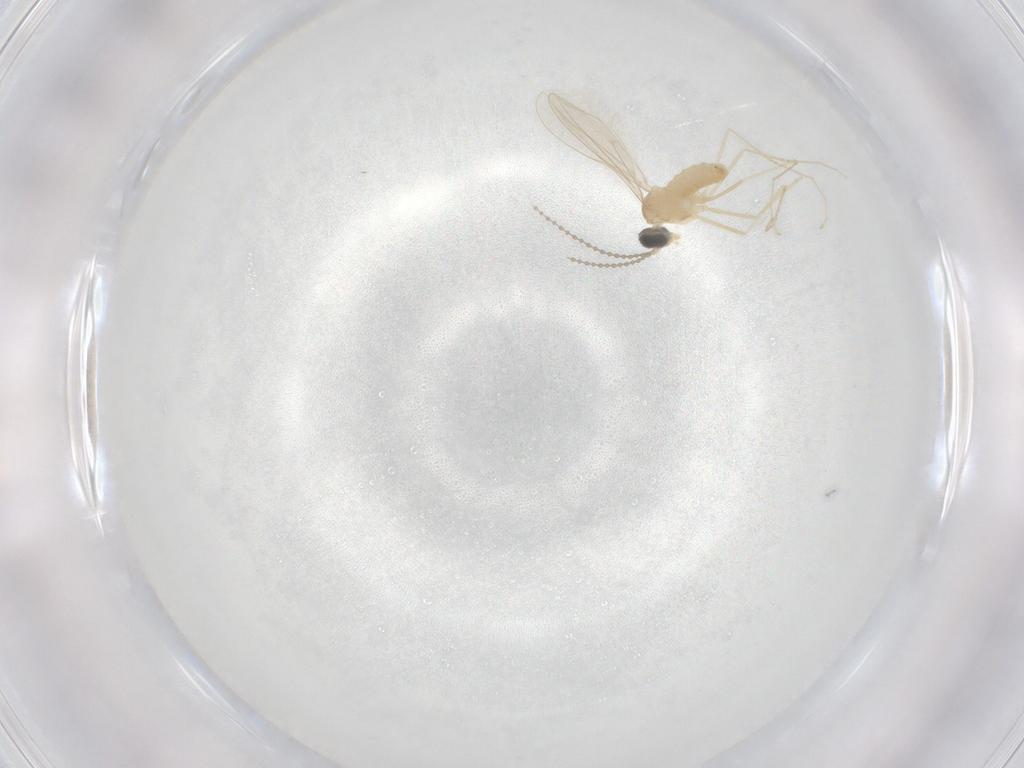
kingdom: Animalia
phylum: Arthropoda
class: Insecta
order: Diptera
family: Cecidomyiidae
